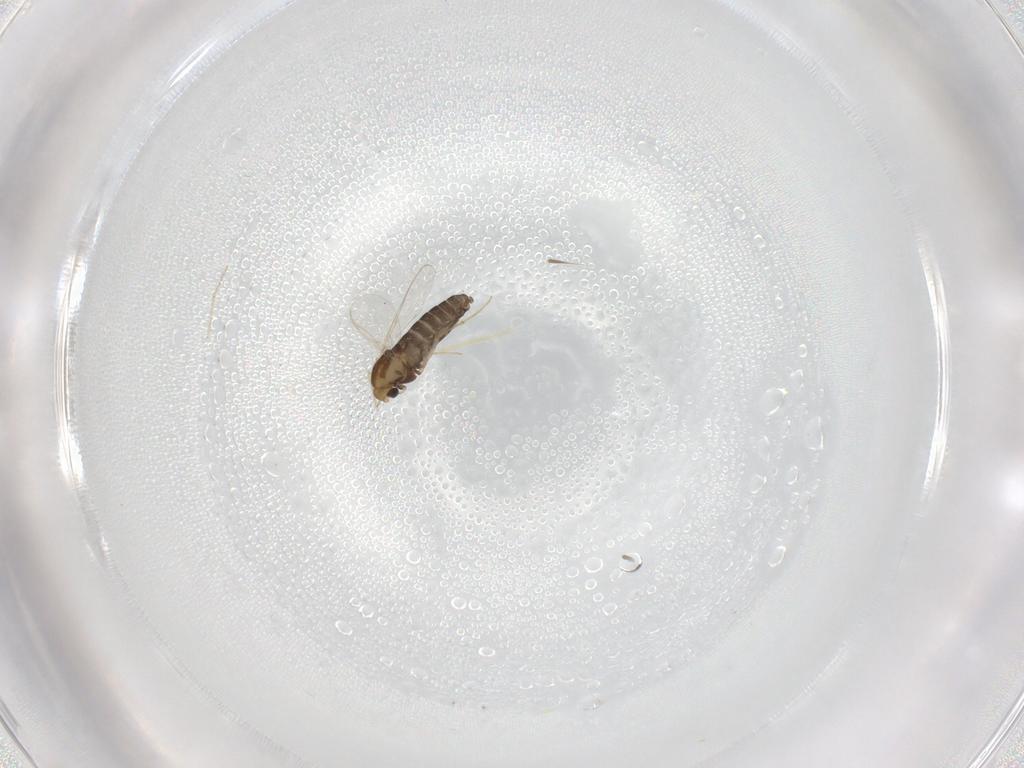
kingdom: Animalia
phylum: Arthropoda
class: Insecta
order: Diptera
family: Chironomidae
